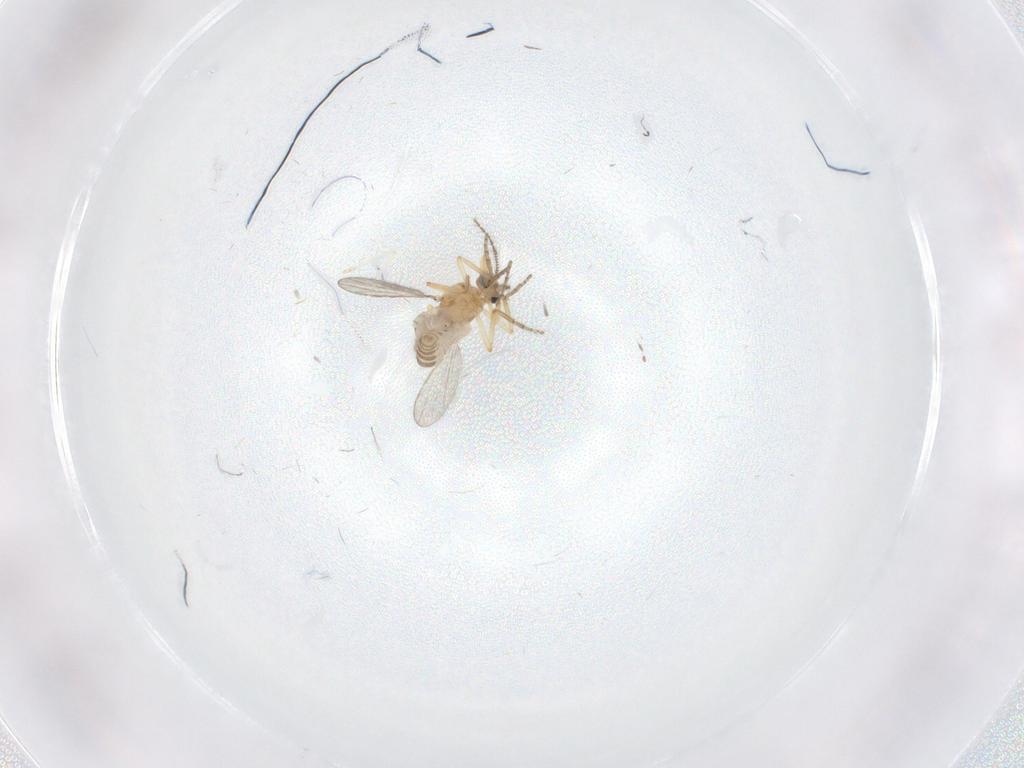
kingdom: Animalia
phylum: Arthropoda
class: Insecta
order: Diptera
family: Ceratopogonidae
